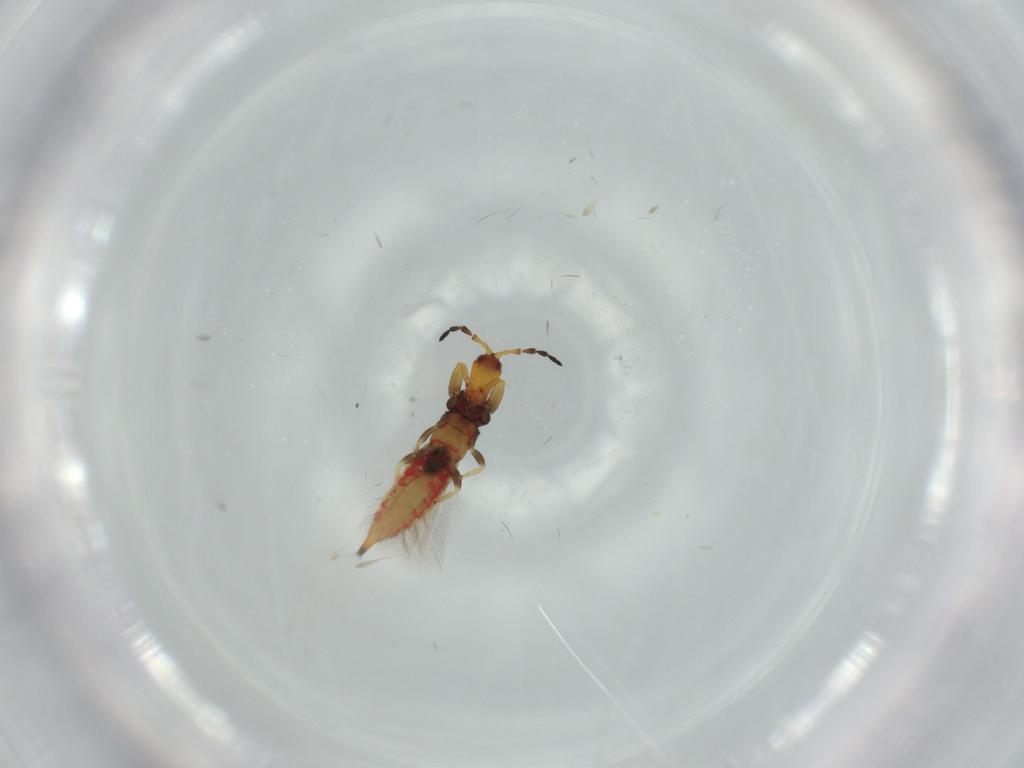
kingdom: Animalia
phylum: Arthropoda
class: Insecta
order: Thysanoptera
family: Phlaeothripidae
